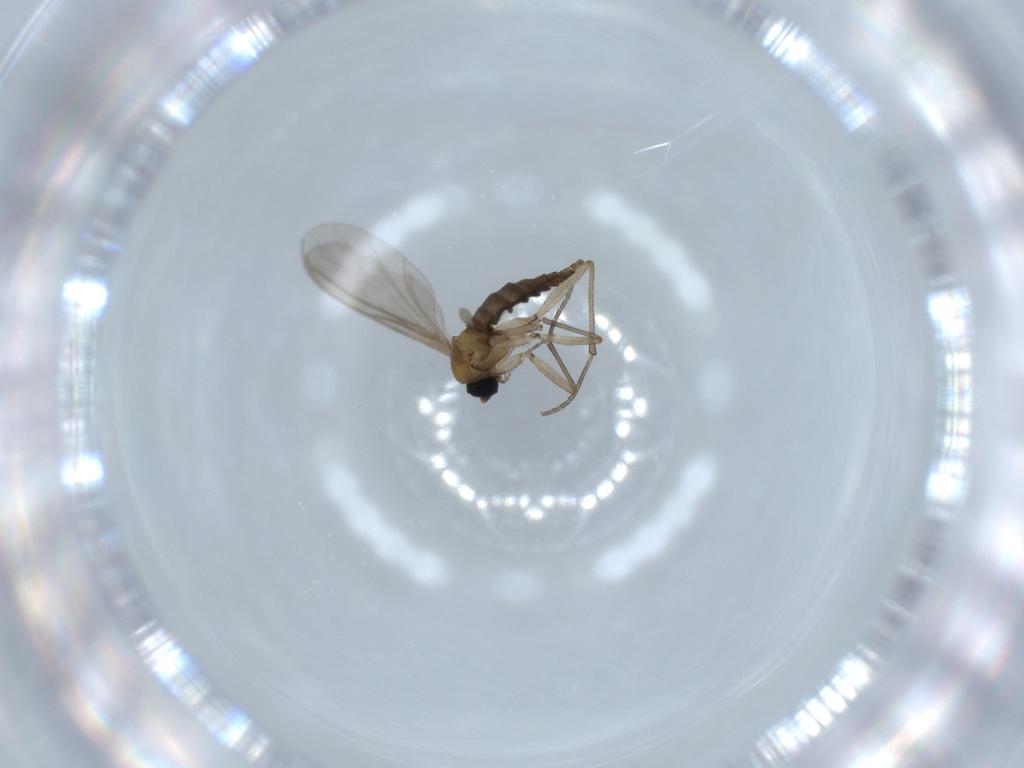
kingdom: Animalia
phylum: Arthropoda
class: Insecta
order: Diptera
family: Sciaridae
